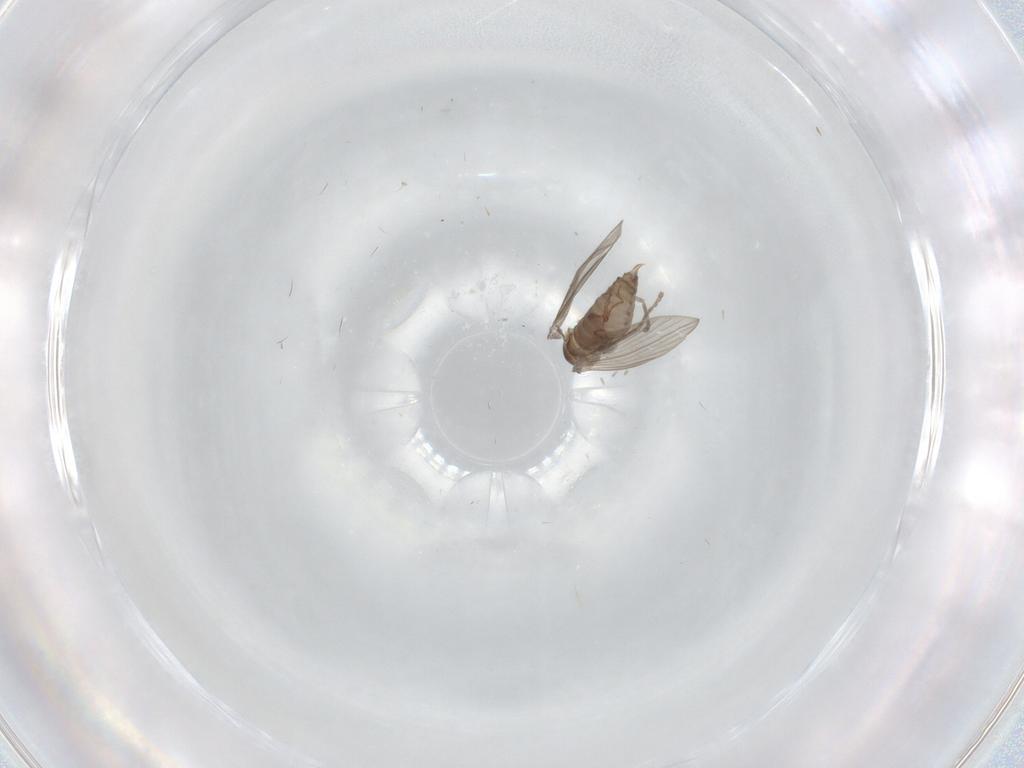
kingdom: Animalia
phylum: Arthropoda
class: Insecta
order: Diptera
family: Psychodidae
